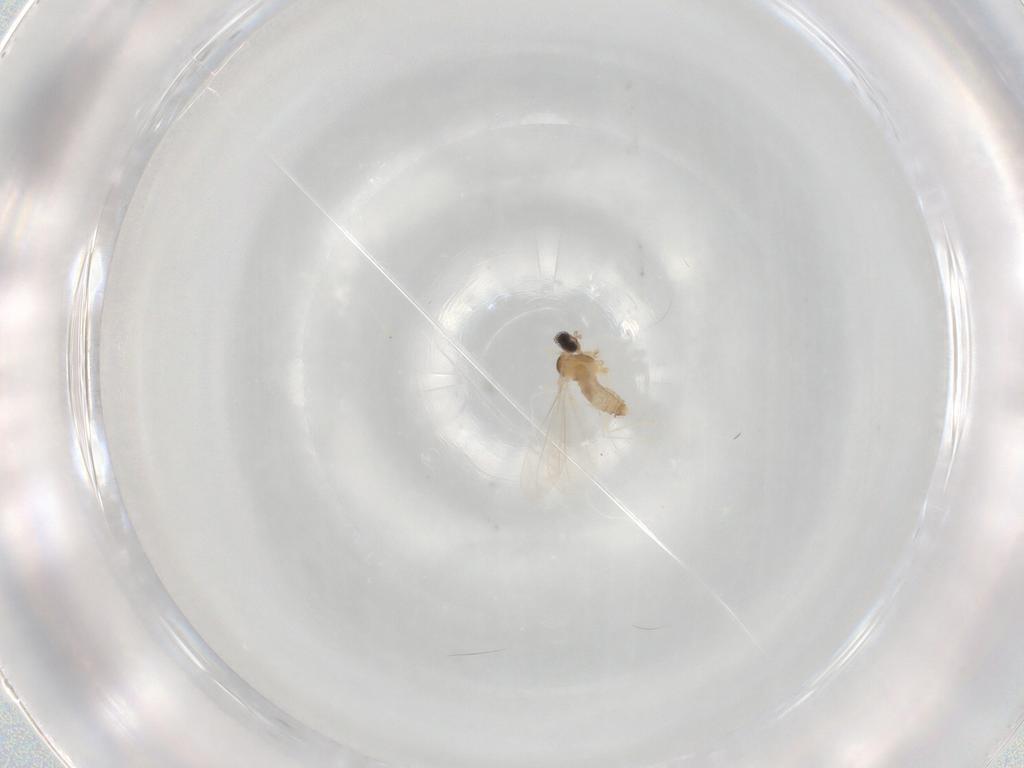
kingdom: Animalia
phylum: Arthropoda
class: Insecta
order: Diptera
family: Cecidomyiidae
